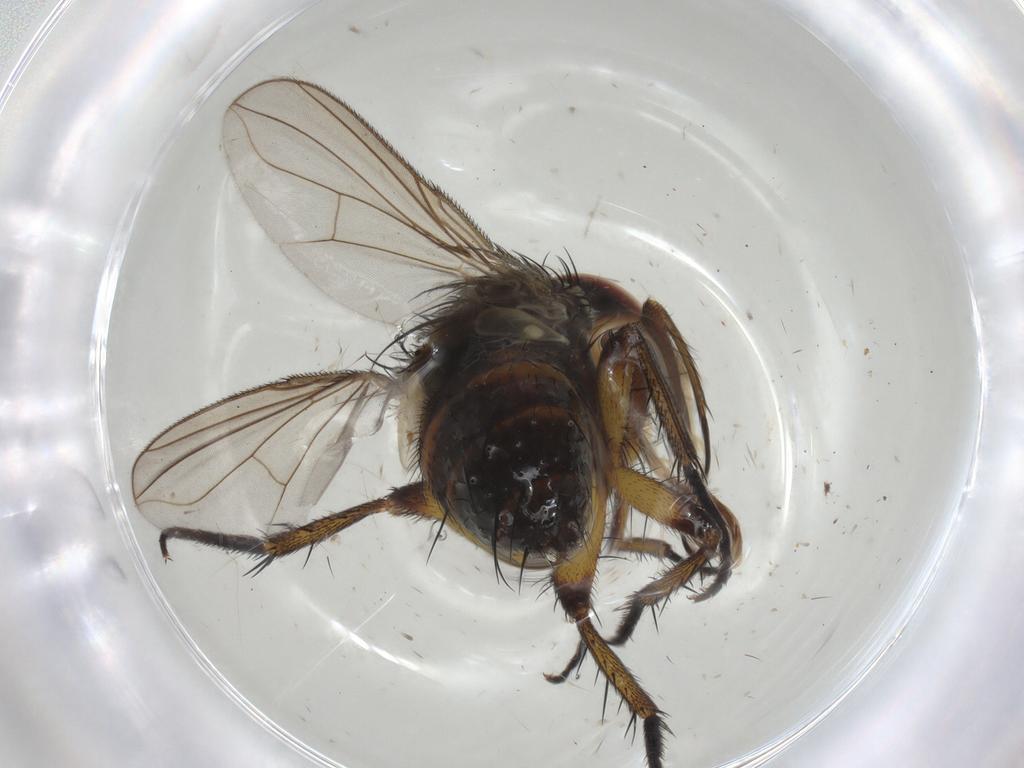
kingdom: Animalia
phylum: Arthropoda
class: Insecta
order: Diptera
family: Tachinidae
